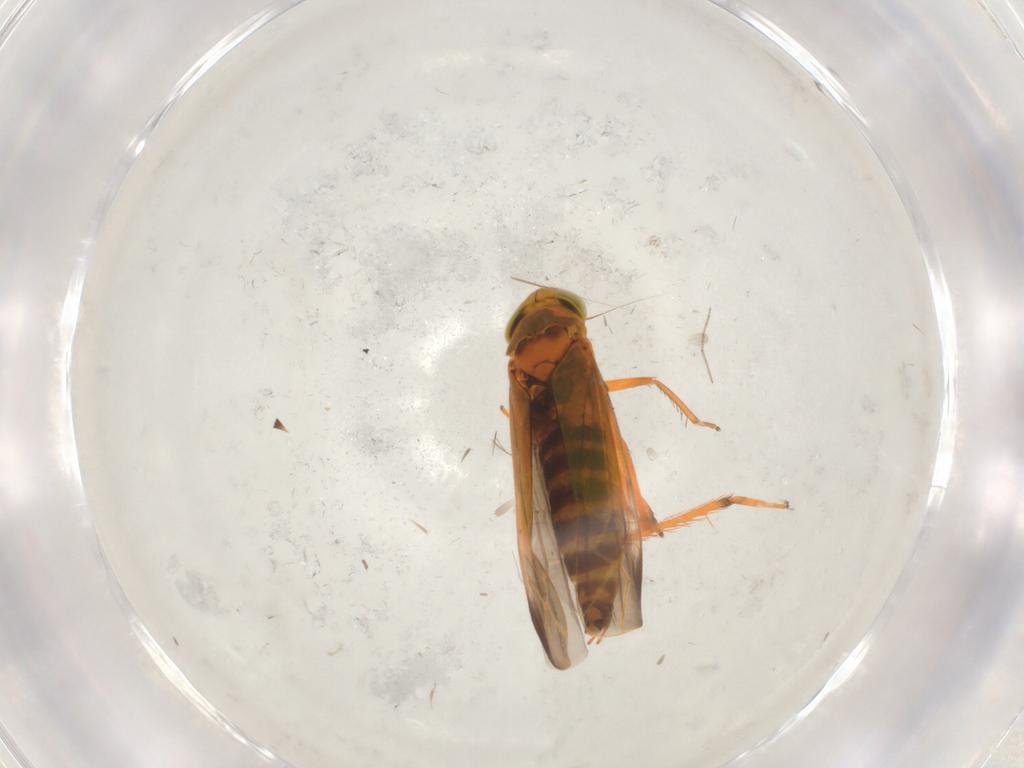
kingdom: Animalia
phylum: Arthropoda
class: Insecta
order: Hemiptera
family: Cicadellidae
